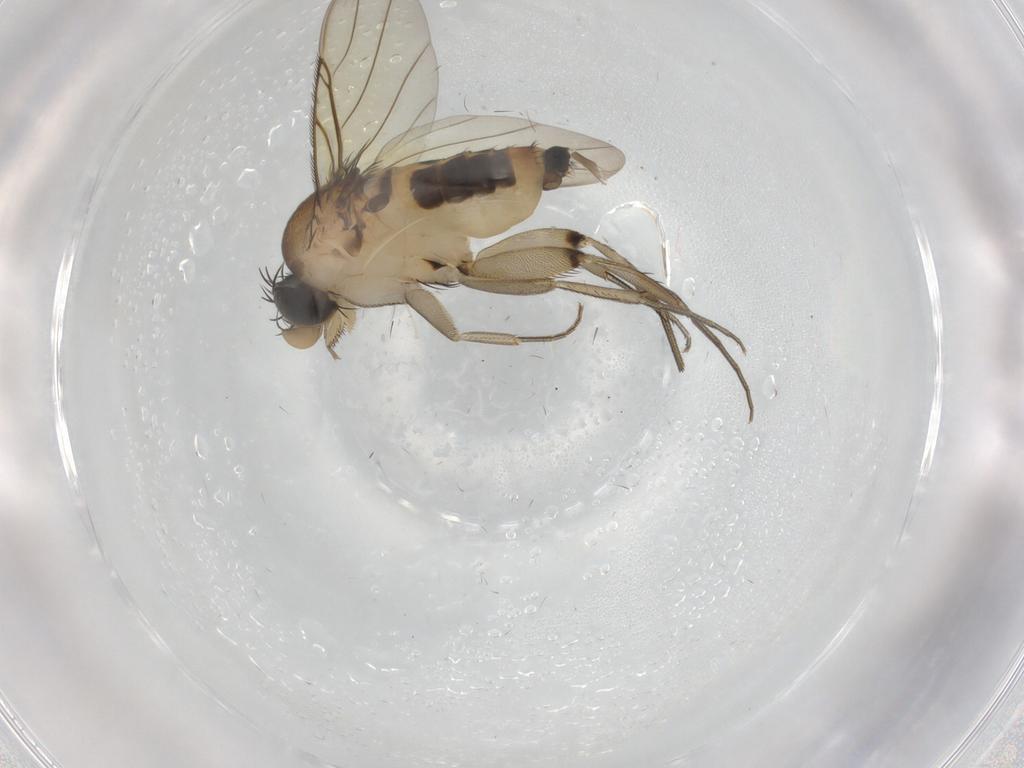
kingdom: Animalia
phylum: Arthropoda
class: Insecta
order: Diptera
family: Phoridae
